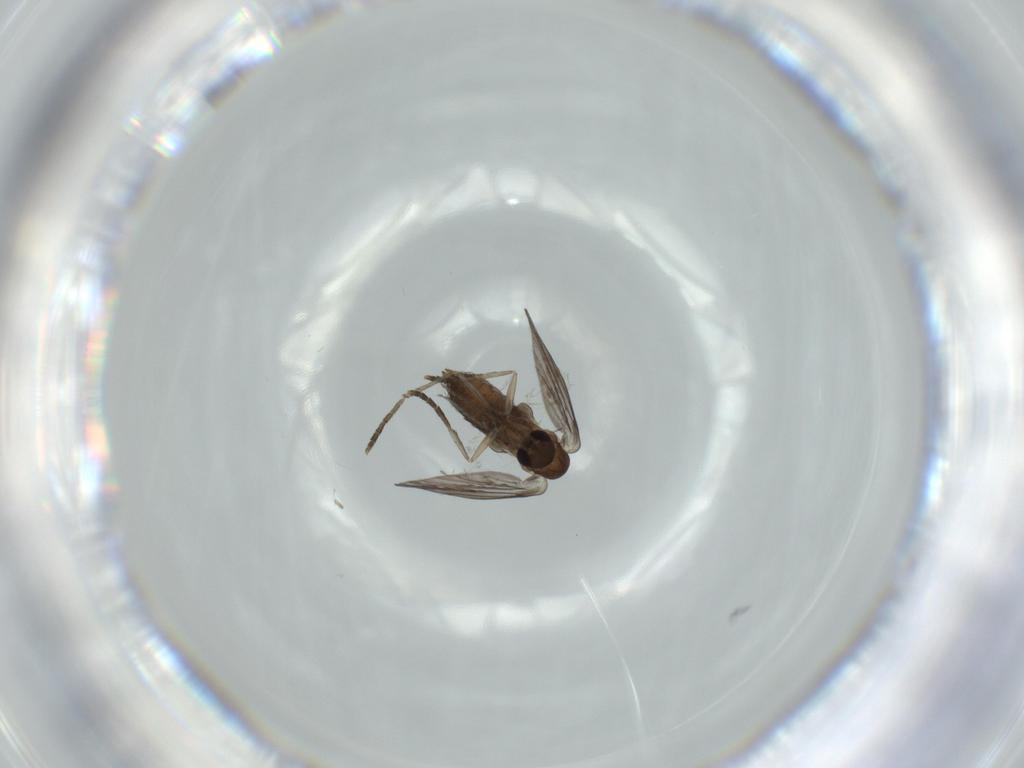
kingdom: Animalia
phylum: Arthropoda
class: Insecta
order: Diptera
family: Psychodidae
